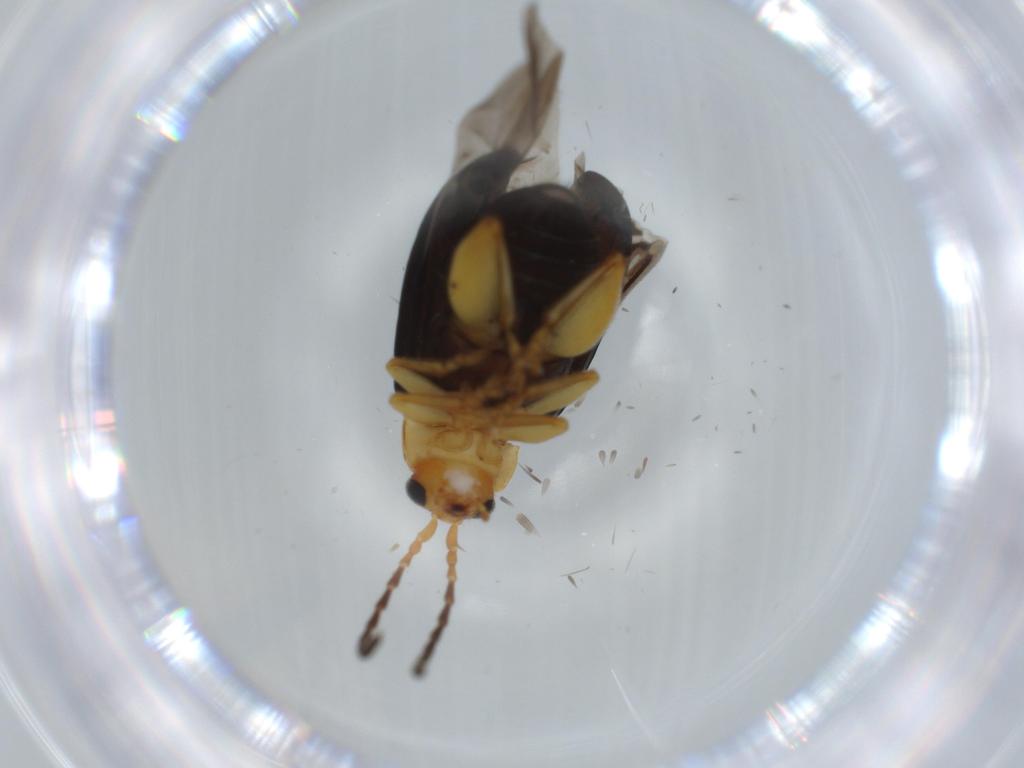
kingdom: Animalia
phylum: Arthropoda
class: Insecta
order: Coleoptera
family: Chrysomelidae
